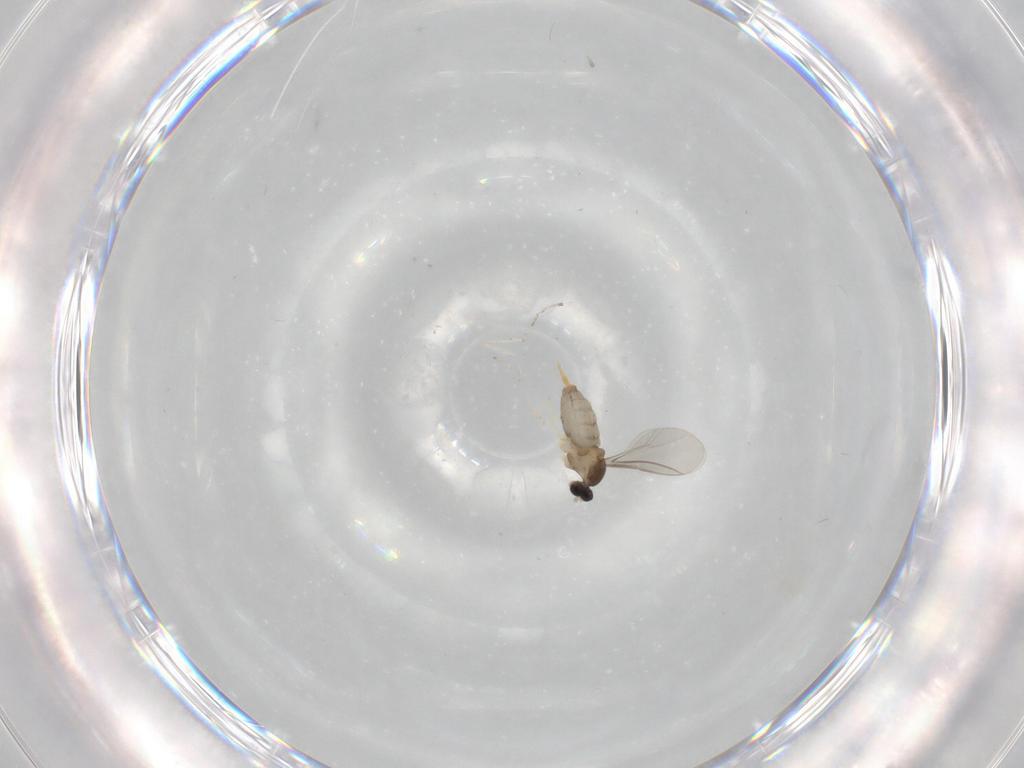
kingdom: Animalia
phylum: Arthropoda
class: Insecta
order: Diptera
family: Cecidomyiidae
